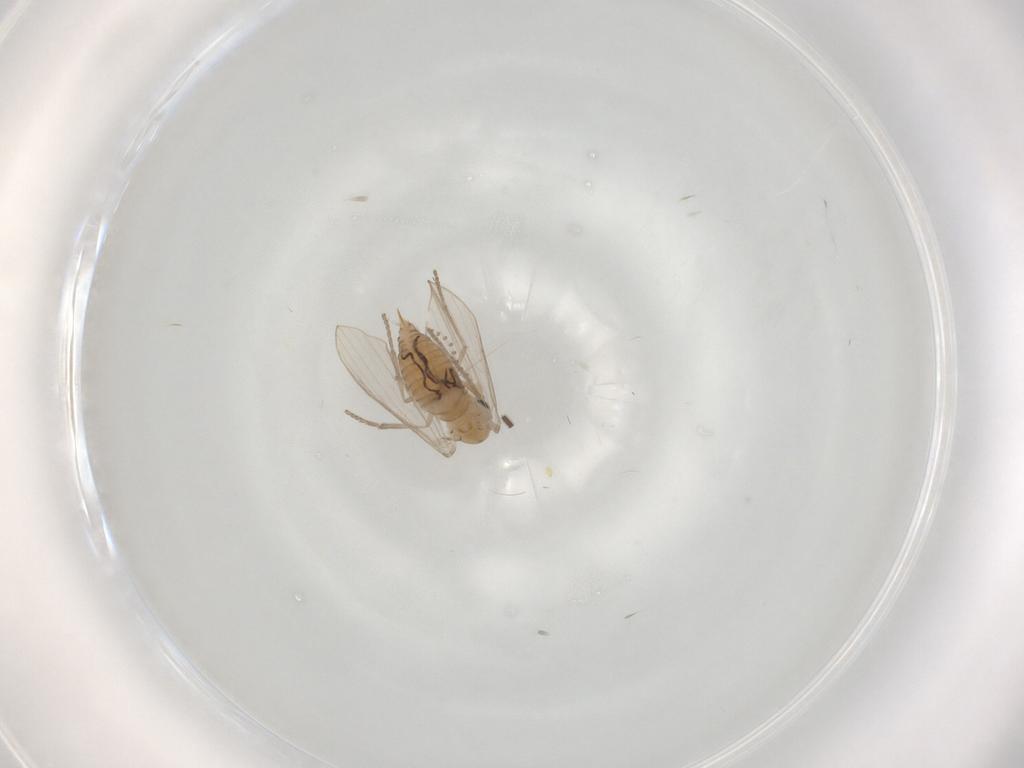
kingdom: Animalia
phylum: Arthropoda
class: Insecta
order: Diptera
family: Psychodidae
